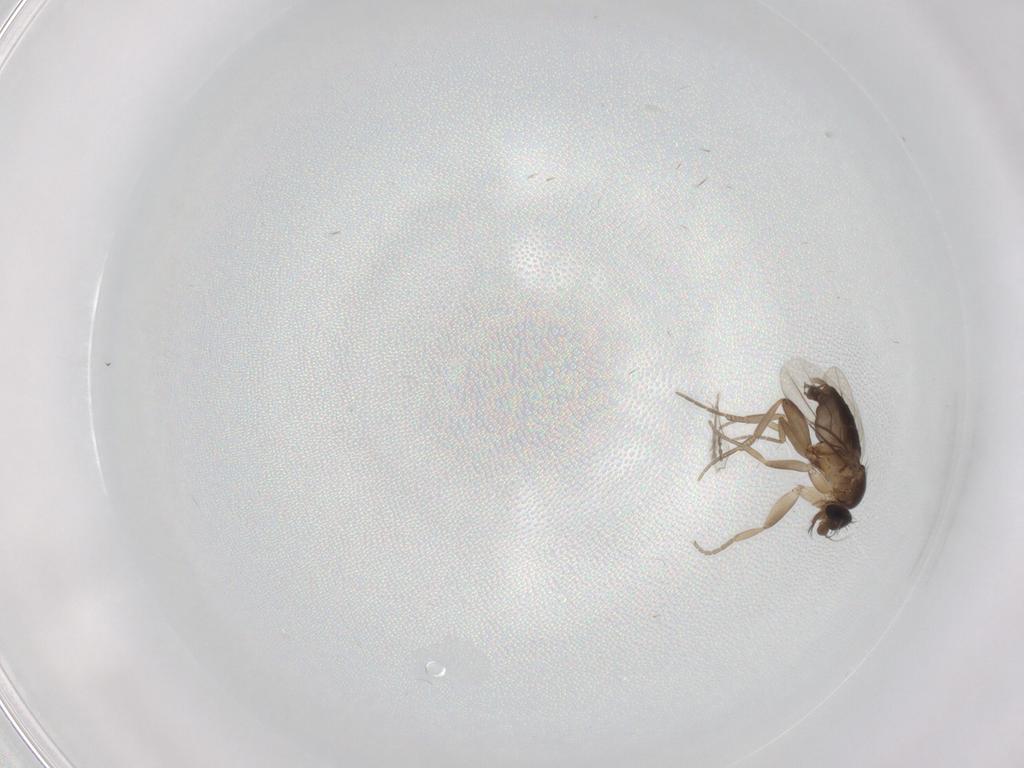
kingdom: Animalia
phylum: Arthropoda
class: Insecta
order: Diptera
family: Phoridae
